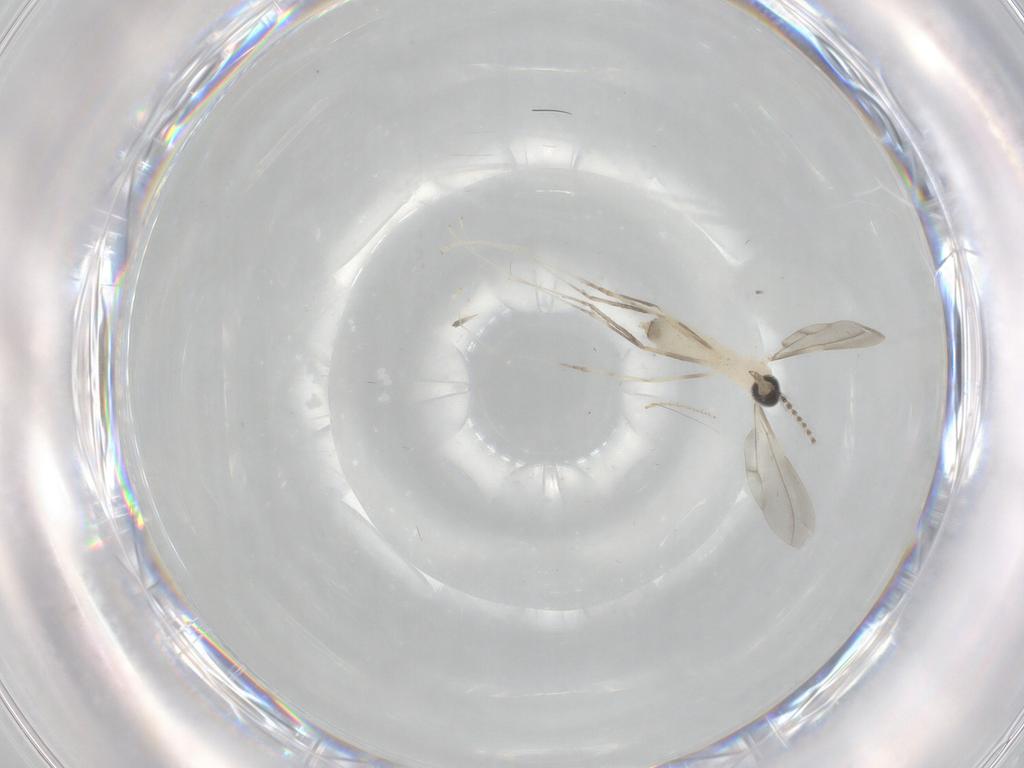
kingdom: Animalia
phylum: Arthropoda
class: Insecta
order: Diptera
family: Cecidomyiidae
